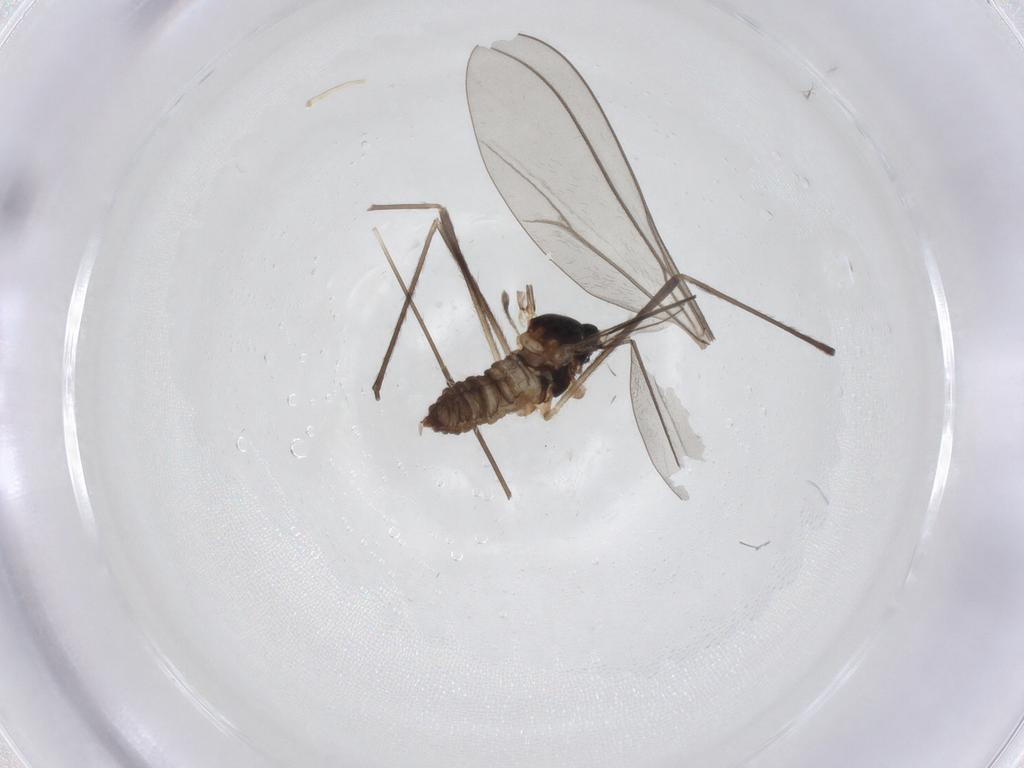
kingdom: Animalia
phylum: Arthropoda
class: Insecta
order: Diptera
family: Cecidomyiidae
